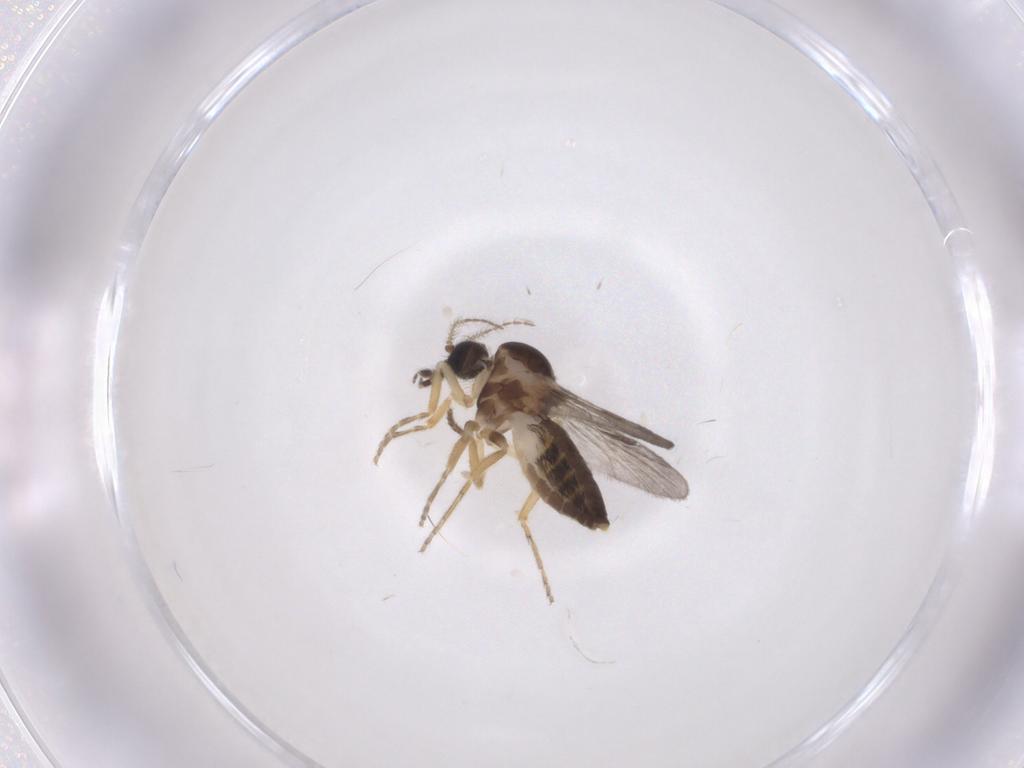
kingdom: Animalia
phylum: Arthropoda
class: Insecta
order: Diptera
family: Ceratopogonidae
